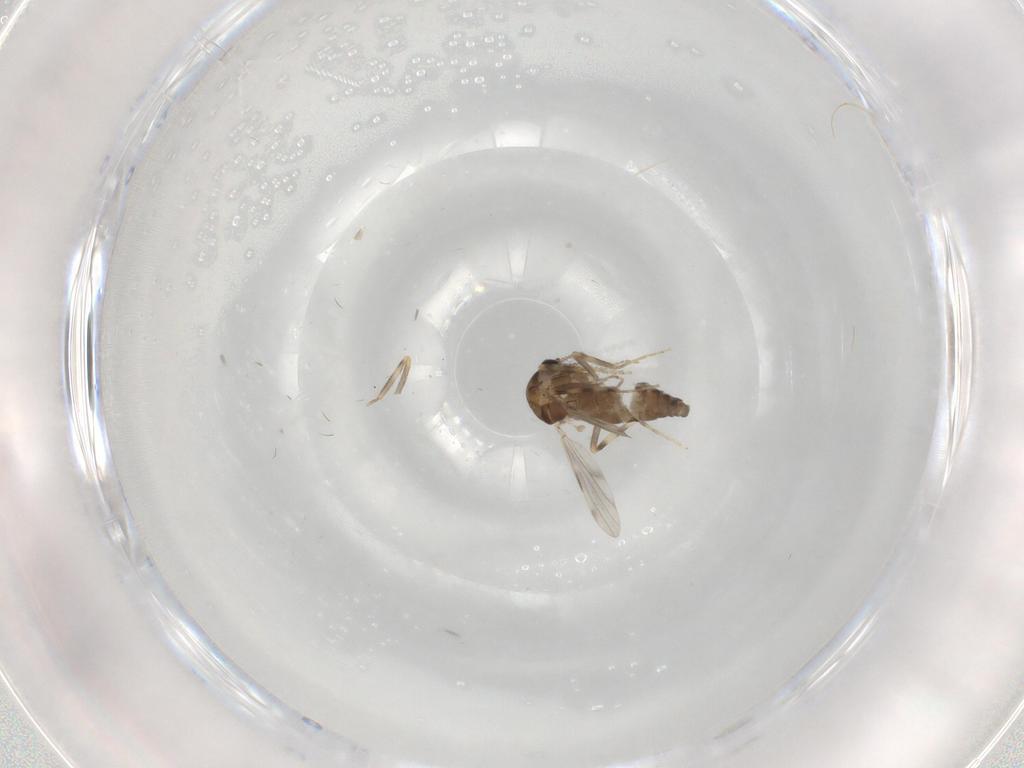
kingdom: Animalia
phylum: Arthropoda
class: Insecta
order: Diptera
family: Ceratopogonidae
